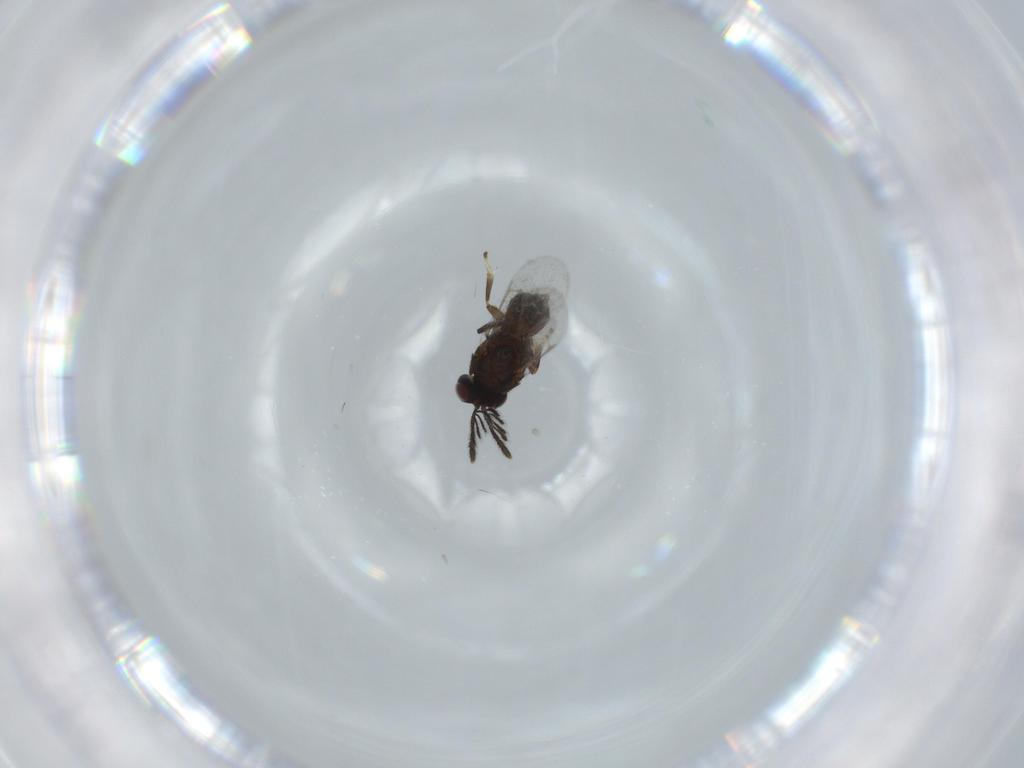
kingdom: Animalia
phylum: Arthropoda
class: Insecta
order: Hymenoptera
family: Tanaostigmatidae
